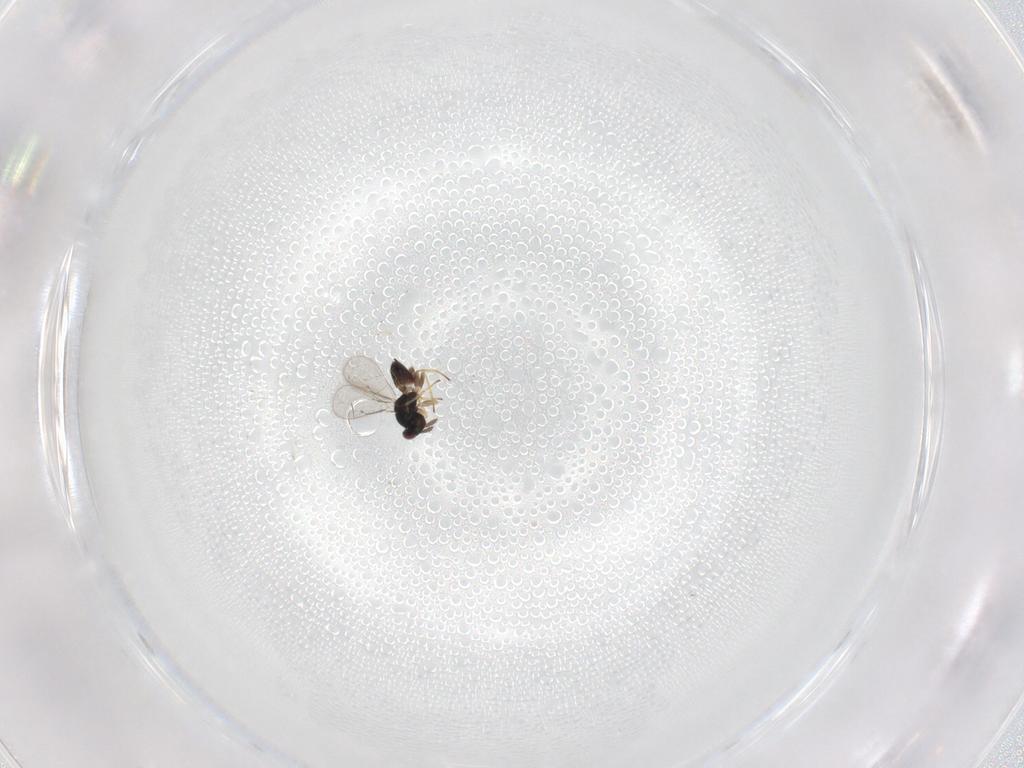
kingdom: Animalia
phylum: Arthropoda
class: Insecta
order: Hymenoptera
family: Eulophidae
